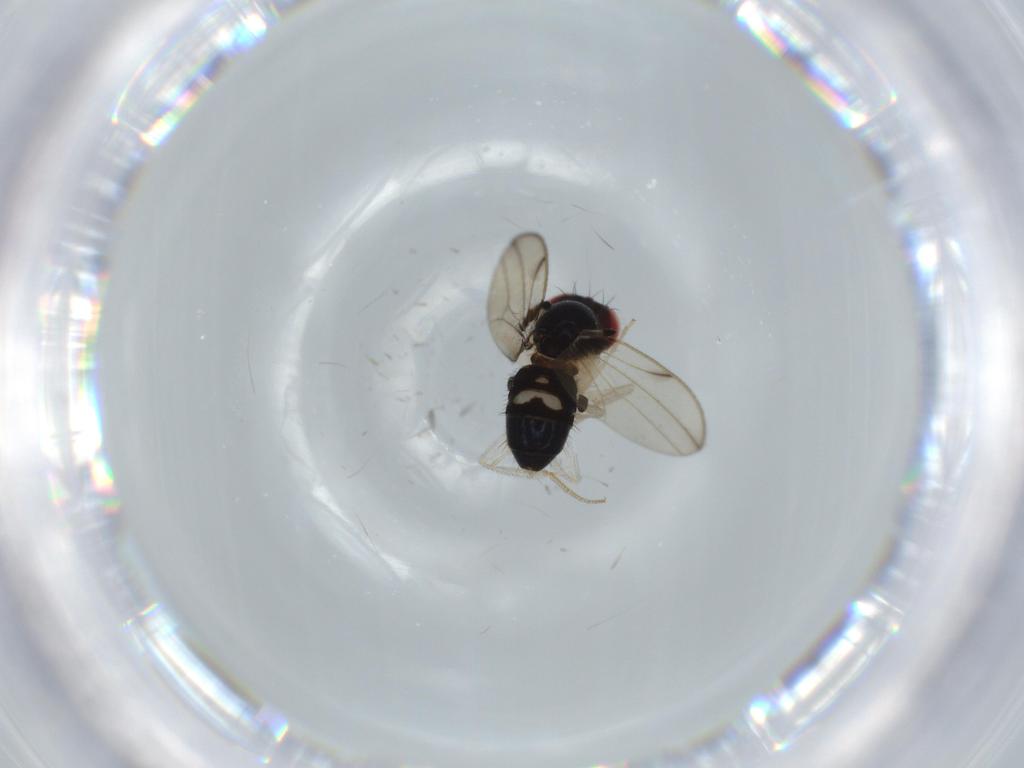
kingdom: Animalia
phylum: Arthropoda
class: Insecta
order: Diptera
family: Drosophilidae
